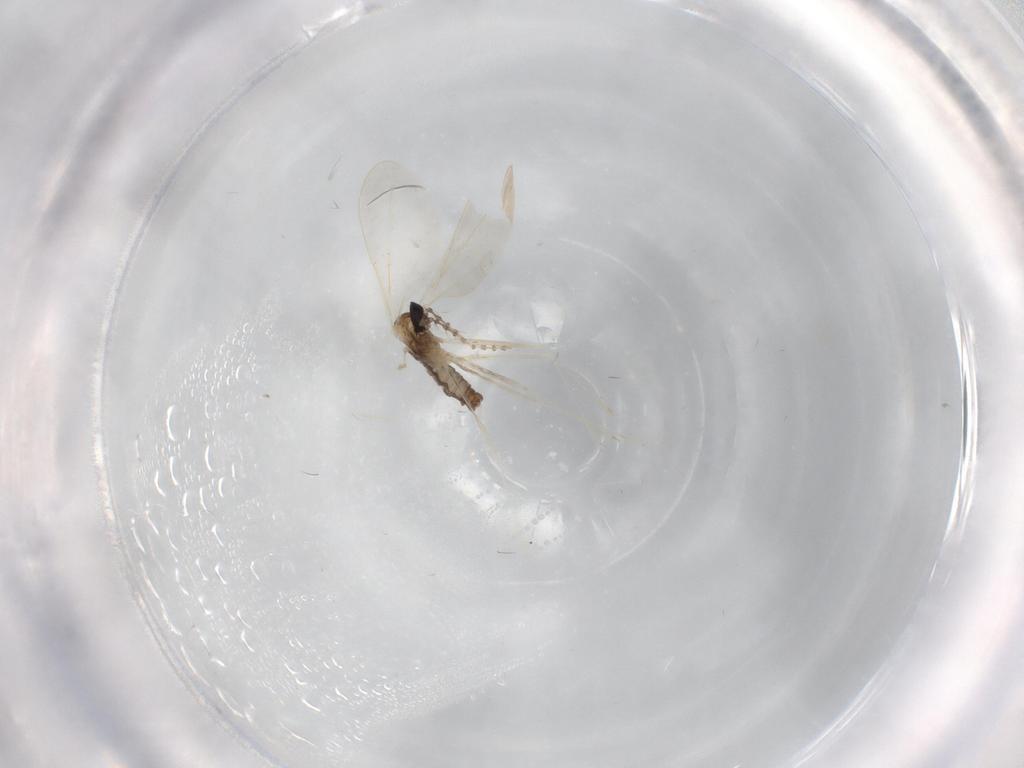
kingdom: Animalia
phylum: Arthropoda
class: Insecta
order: Diptera
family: Cecidomyiidae
